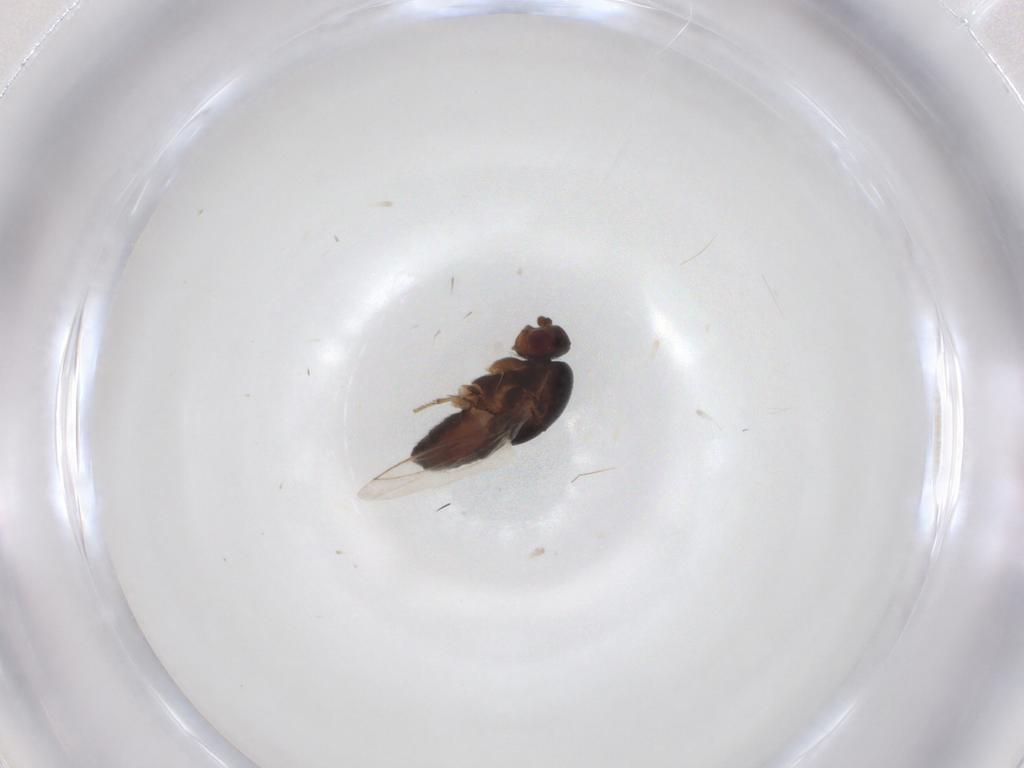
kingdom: Animalia
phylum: Arthropoda
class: Insecta
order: Diptera
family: Sphaeroceridae
